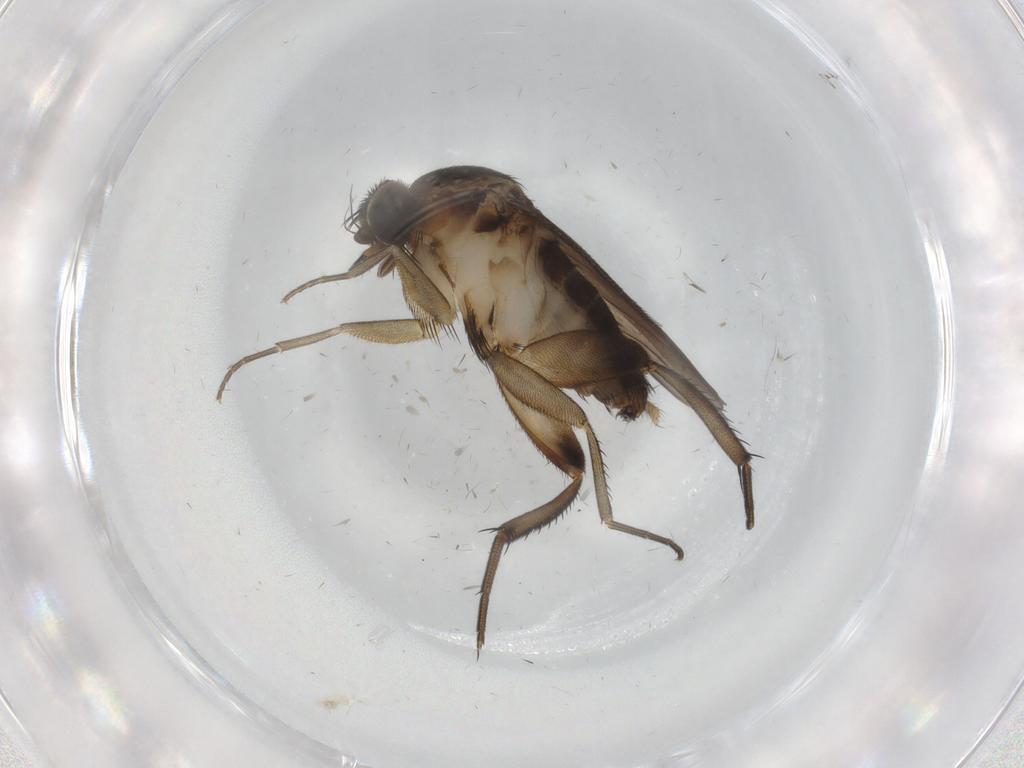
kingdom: Animalia
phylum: Arthropoda
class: Insecta
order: Diptera
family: Phoridae
